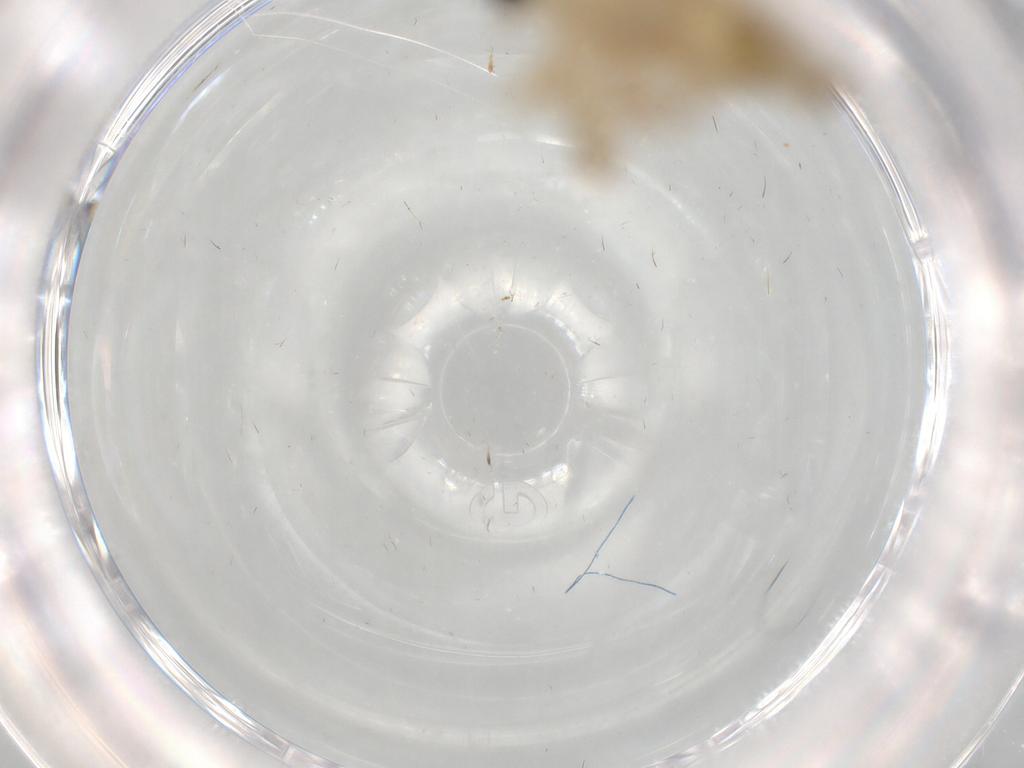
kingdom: Animalia
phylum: Arthropoda
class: Insecta
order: Diptera
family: Hybotidae
